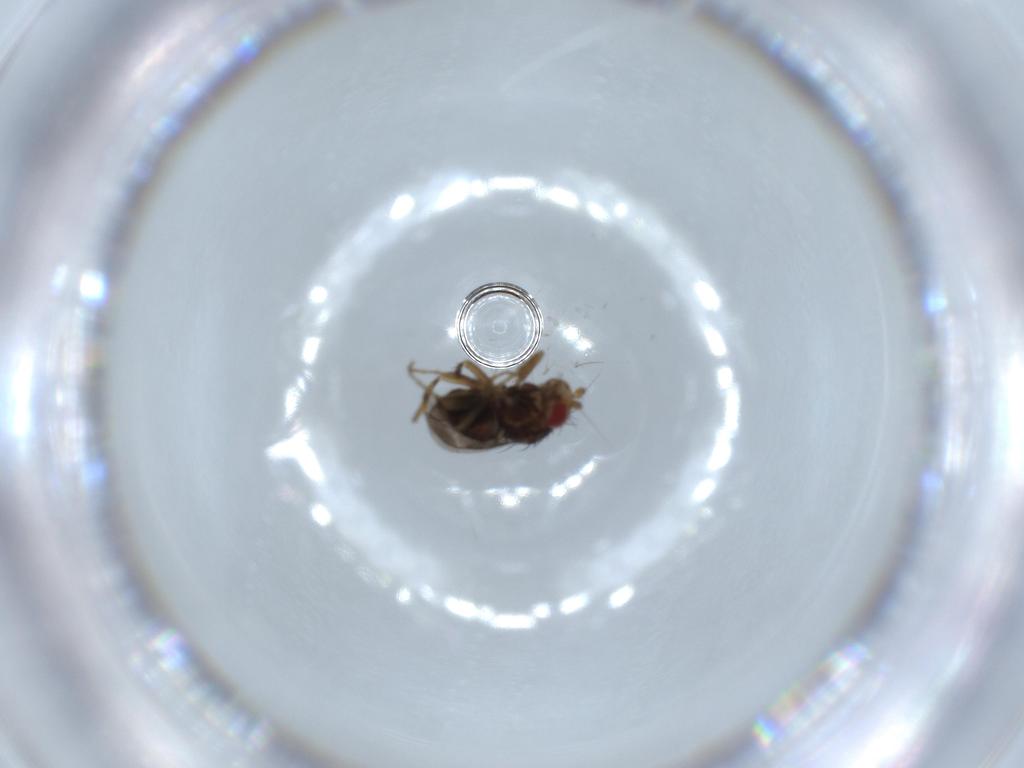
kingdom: Animalia
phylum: Arthropoda
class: Insecta
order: Diptera
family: Sphaeroceridae
